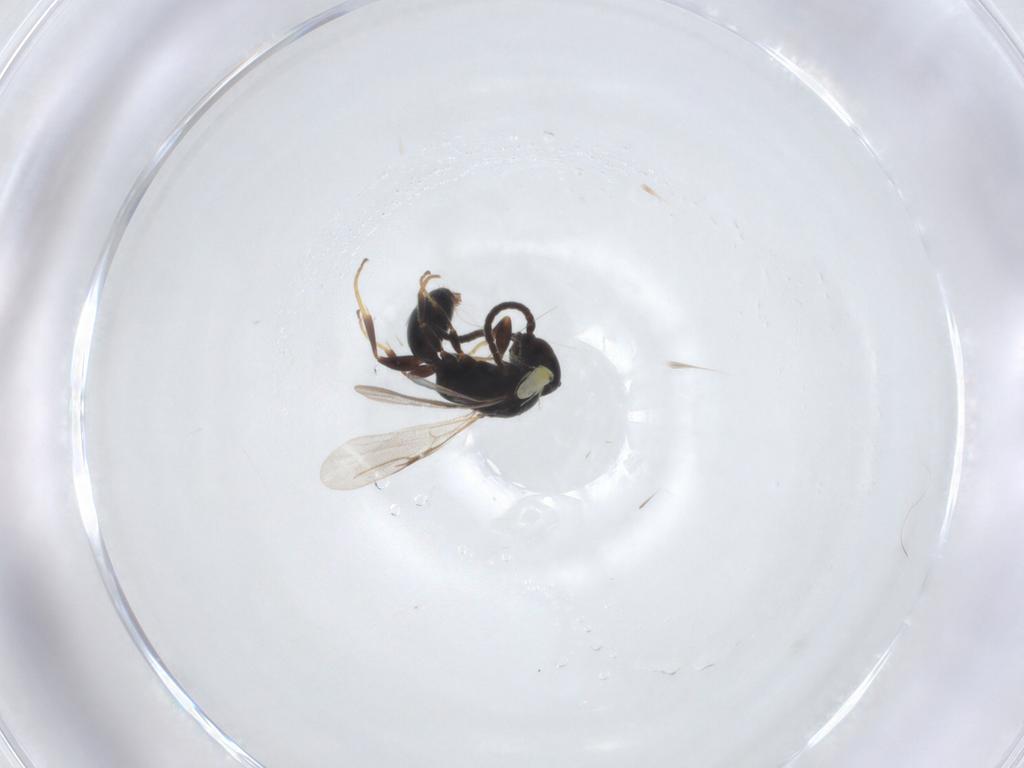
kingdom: Animalia
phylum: Arthropoda
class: Insecta
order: Hymenoptera
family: Bethylidae
